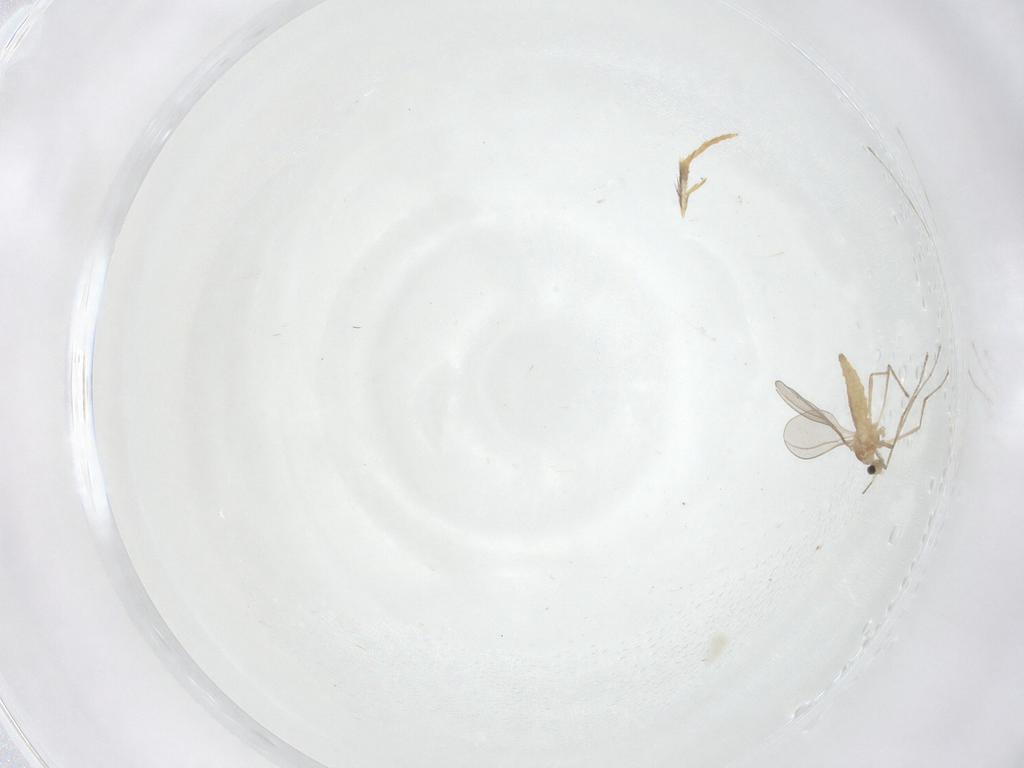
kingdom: Animalia
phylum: Arthropoda
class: Insecta
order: Diptera
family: Cecidomyiidae
